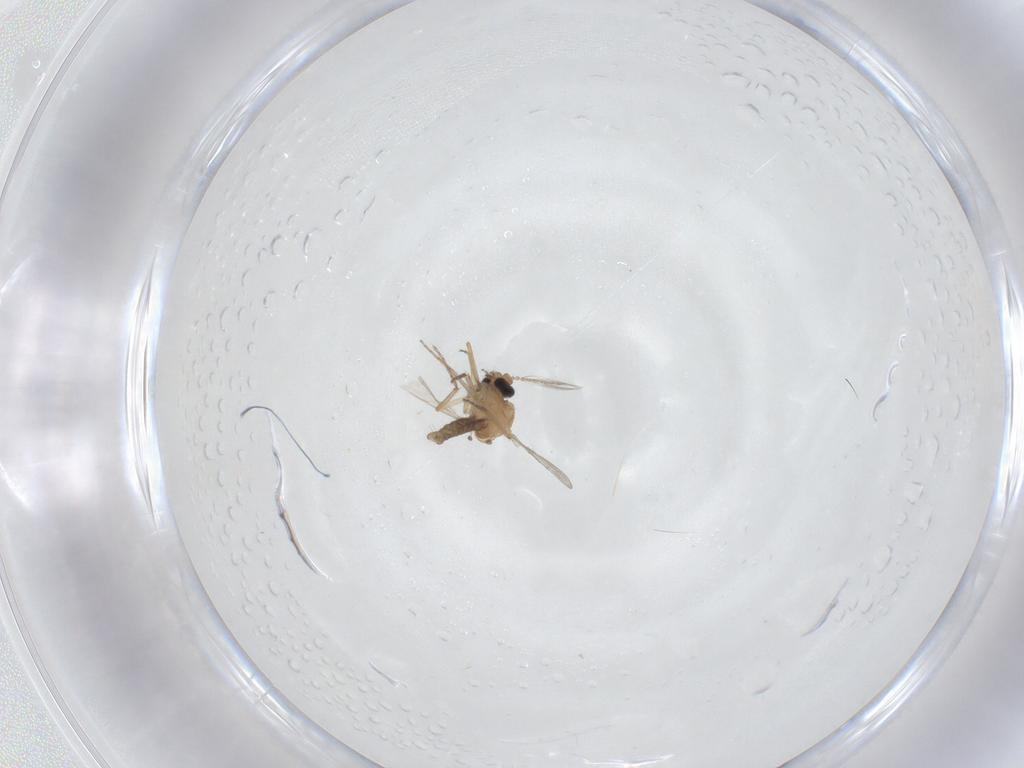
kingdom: Animalia
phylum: Arthropoda
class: Insecta
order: Diptera
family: Ceratopogonidae
